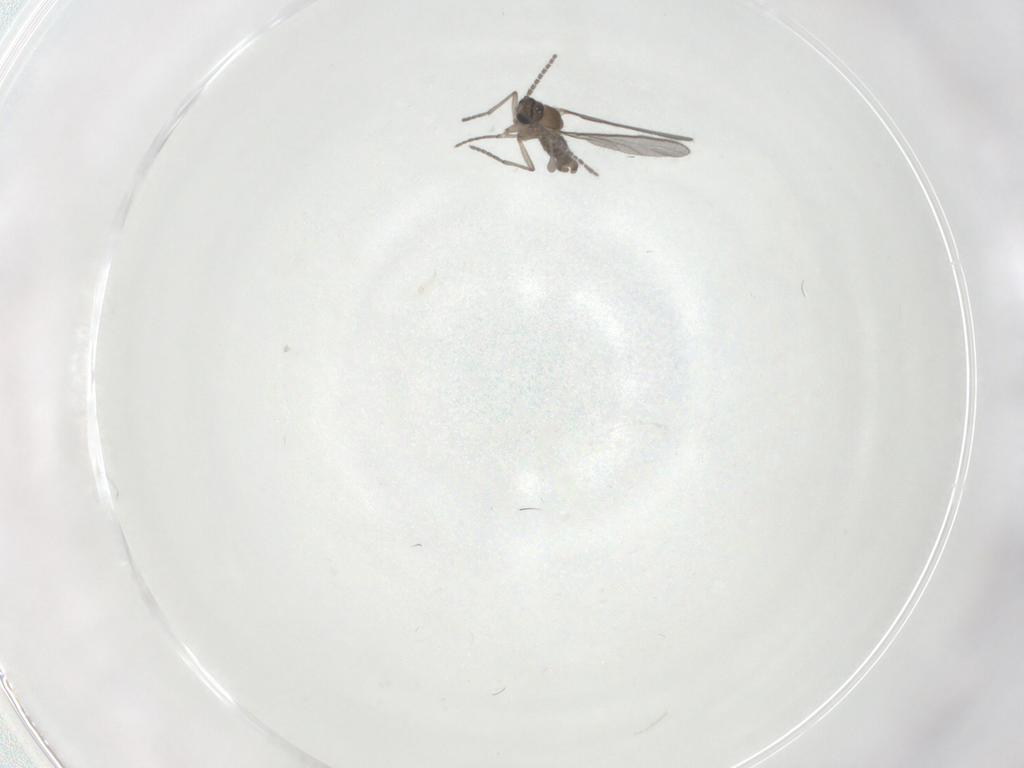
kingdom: Animalia
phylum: Arthropoda
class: Insecta
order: Diptera
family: Sciaridae
